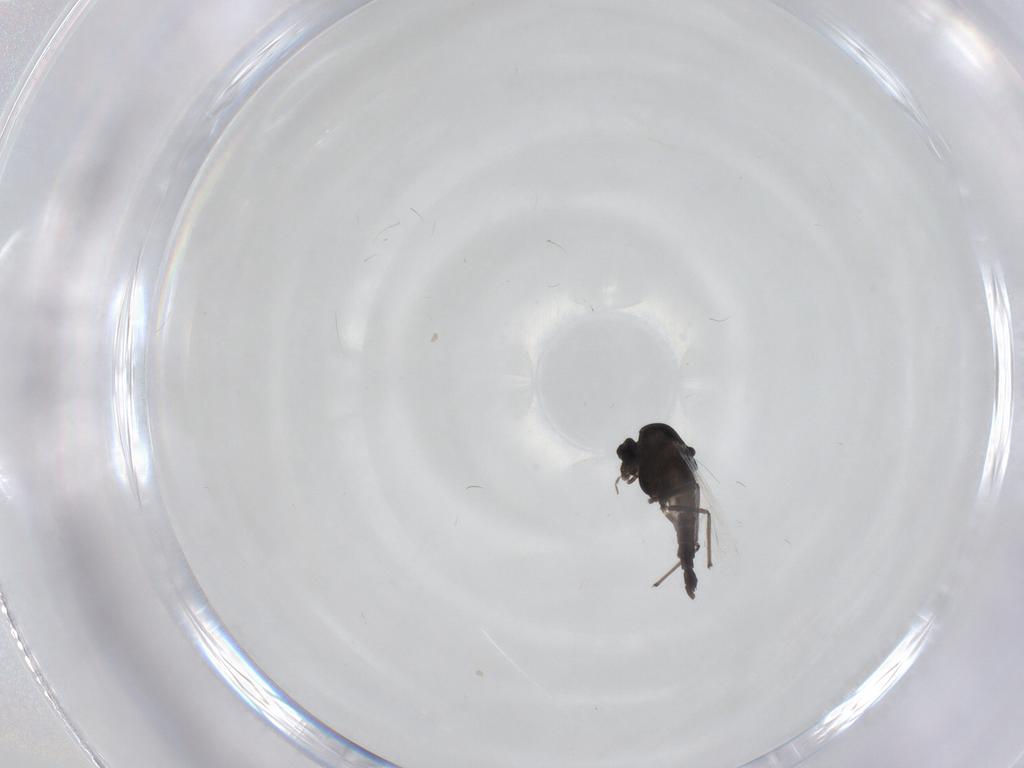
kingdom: Animalia
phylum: Arthropoda
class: Insecta
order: Diptera
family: Chironomidae
